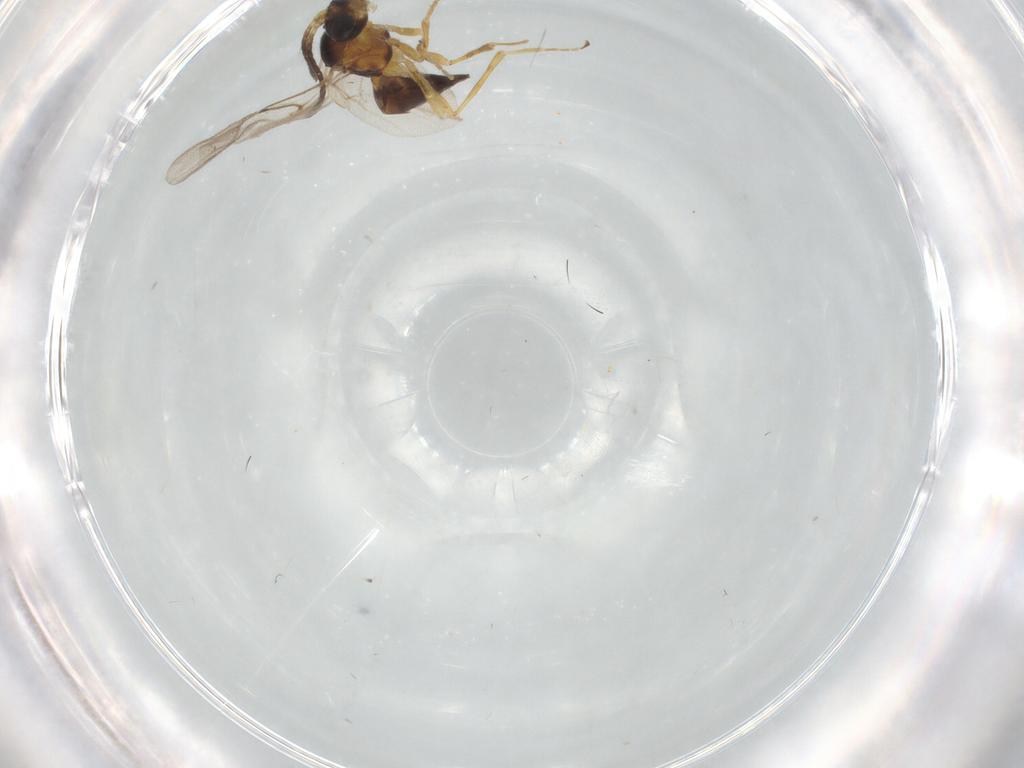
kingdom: Animalia
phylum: Arthropoda
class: Insecta
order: Hymenoptera
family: Braconidae
